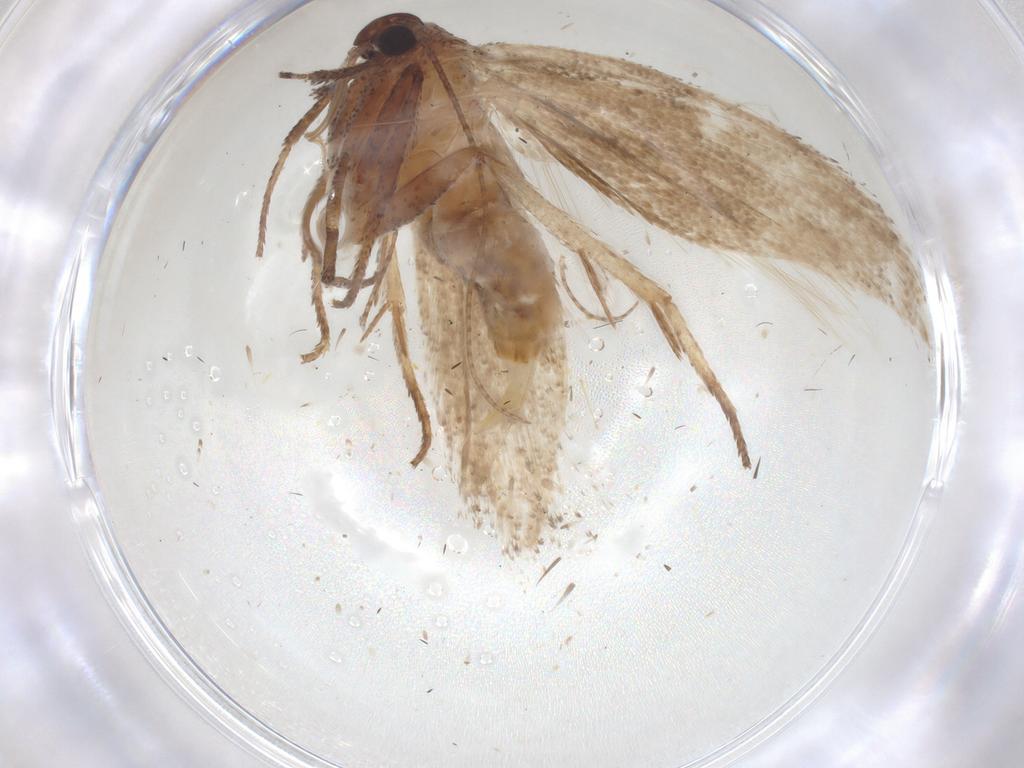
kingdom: Animalia
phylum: Arthropoda
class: Insecta
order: Lepidoptera
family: Cosmopterigidae
